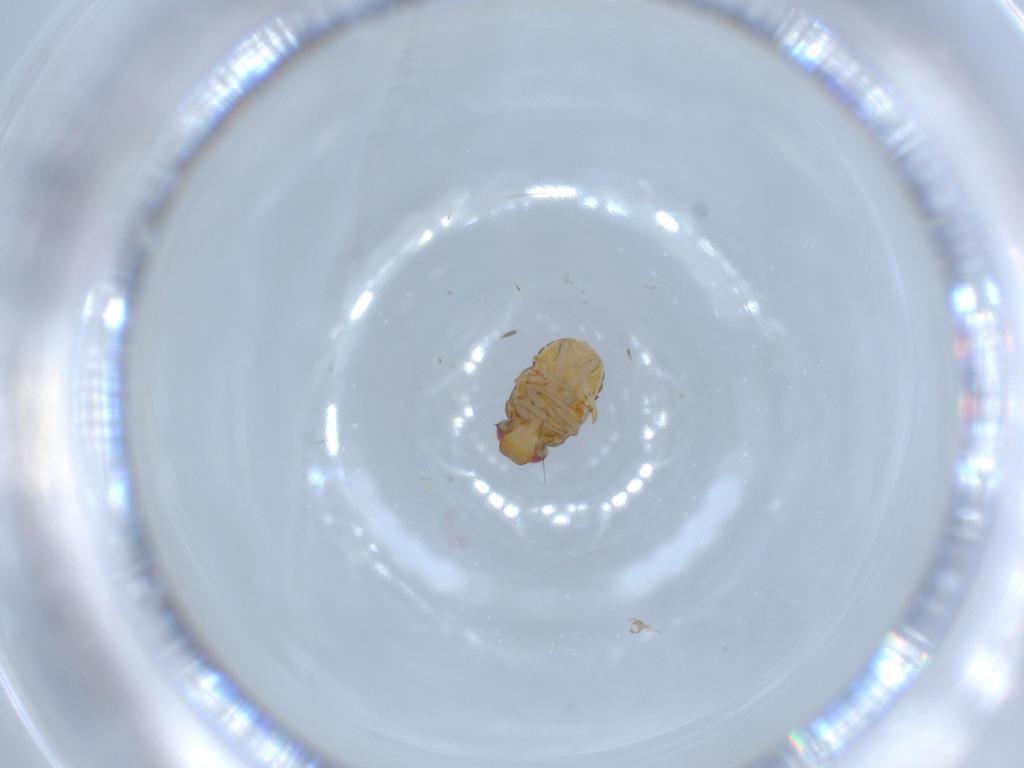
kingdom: Animalia
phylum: Arthropoda
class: Insecta
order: Hemiptera
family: Issidae
